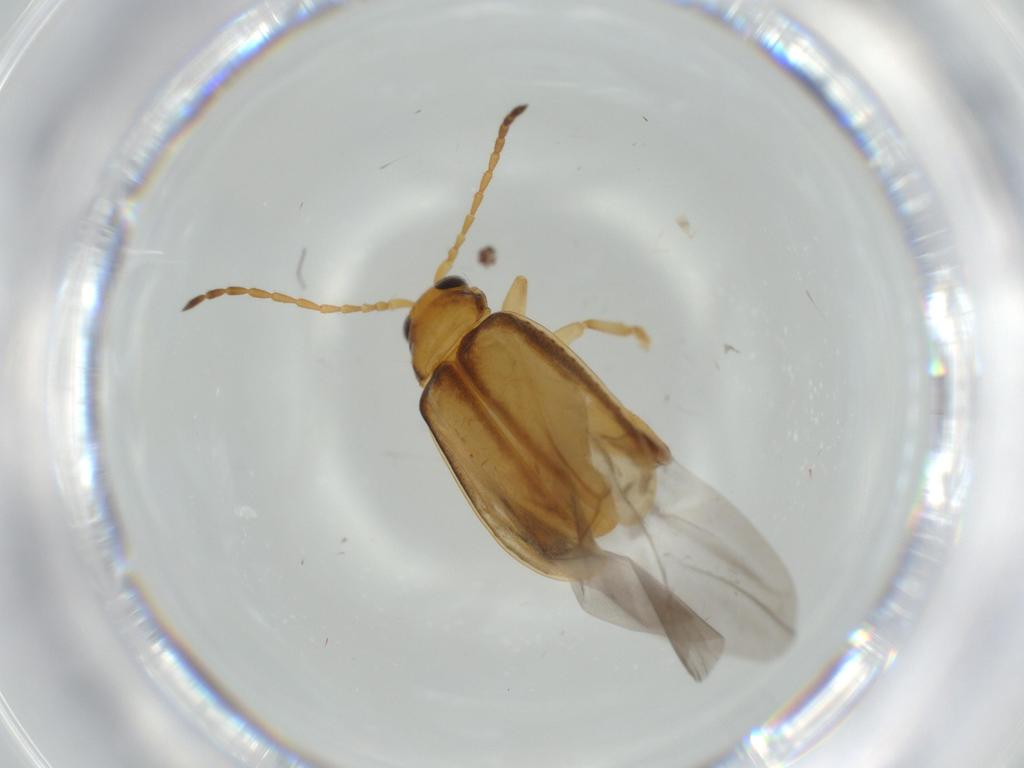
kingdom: Animalia
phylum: Arthropoda
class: Insecta
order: Coleoptera
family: Chrysomelidae
